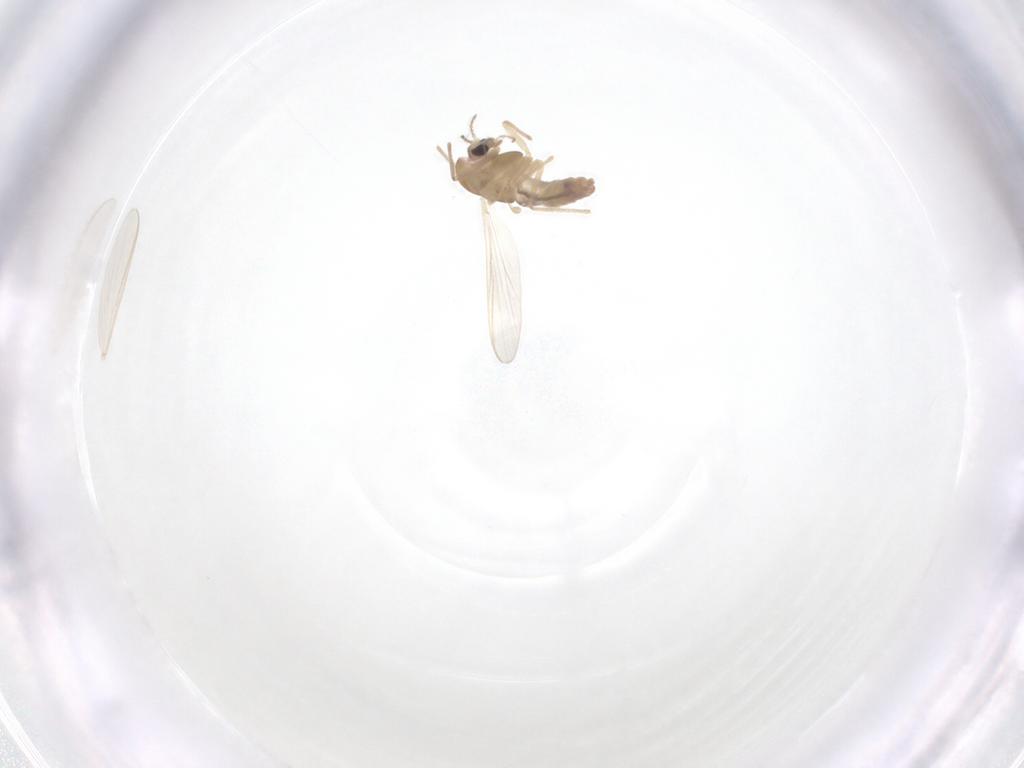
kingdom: Animalia
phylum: Arthropoda
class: Insecta
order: Diptera
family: Chironomidae
